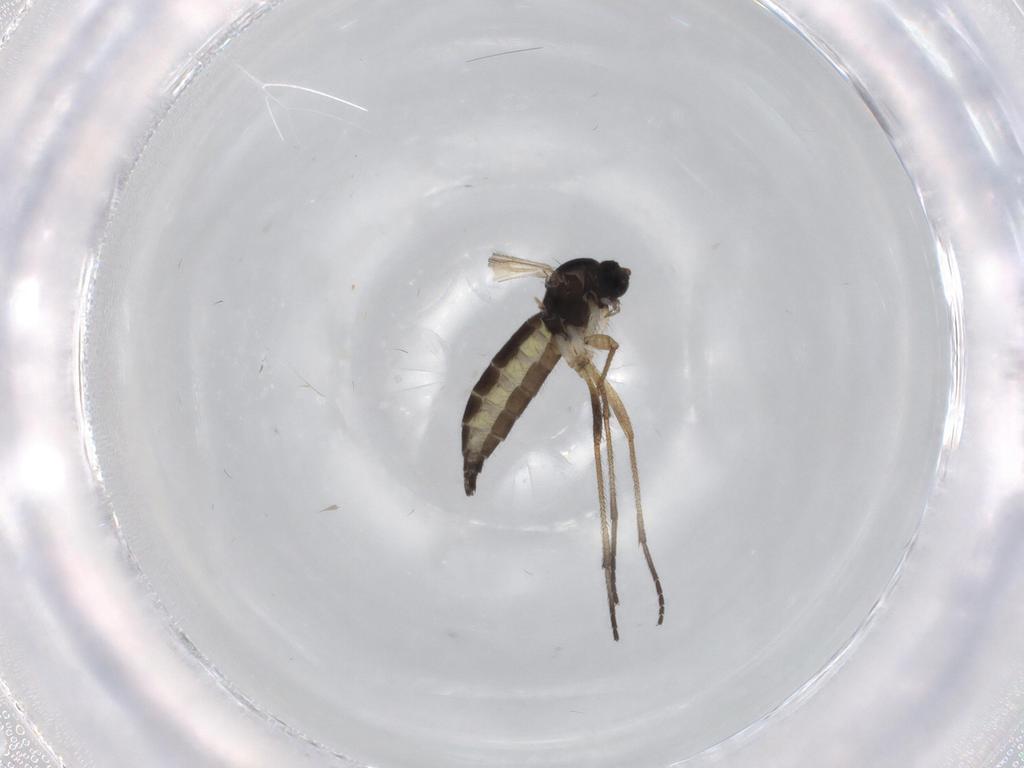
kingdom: Animalia
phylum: Arthropoda
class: Insecta
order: Diptera
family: Sciaridae
